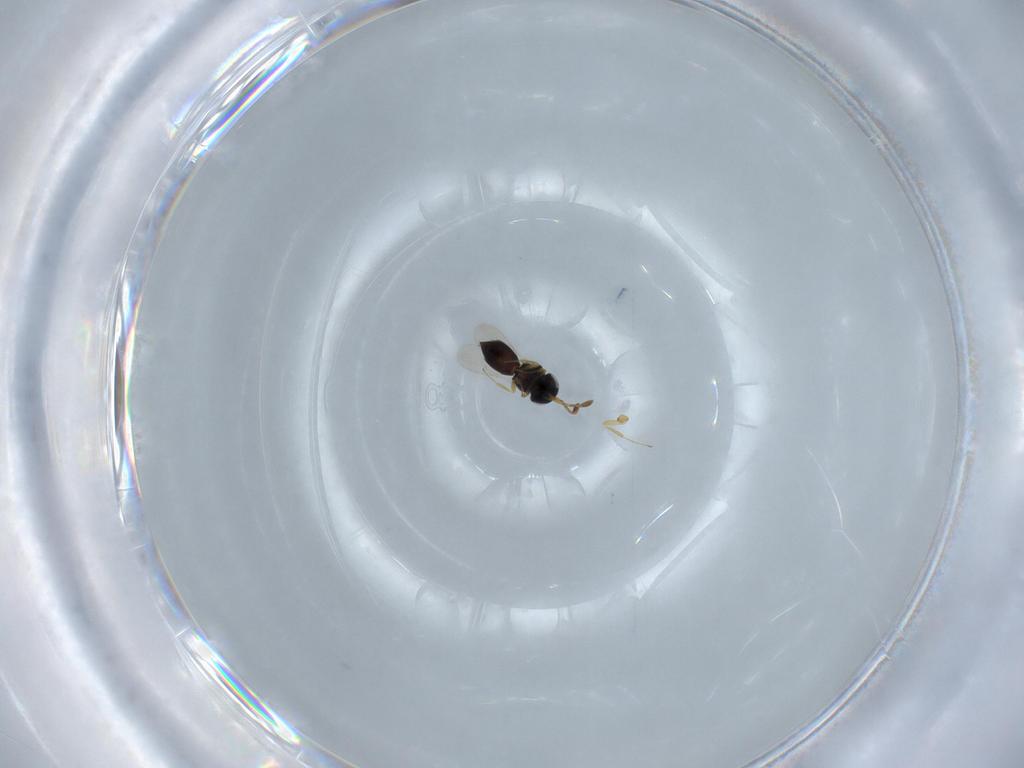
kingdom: Animalia
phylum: Arthropoda
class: Insecta
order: Hymenoptera
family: Scelionidae
